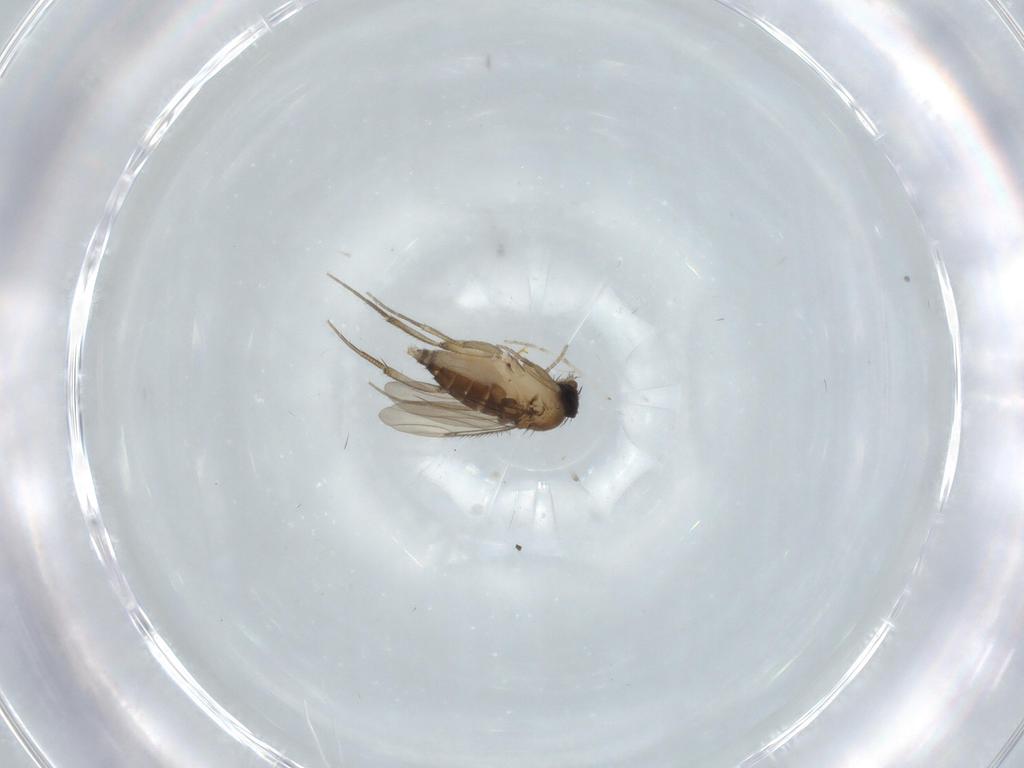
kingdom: Animalia
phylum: Arthropoda
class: Insecta
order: Diptera
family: Phoridae
